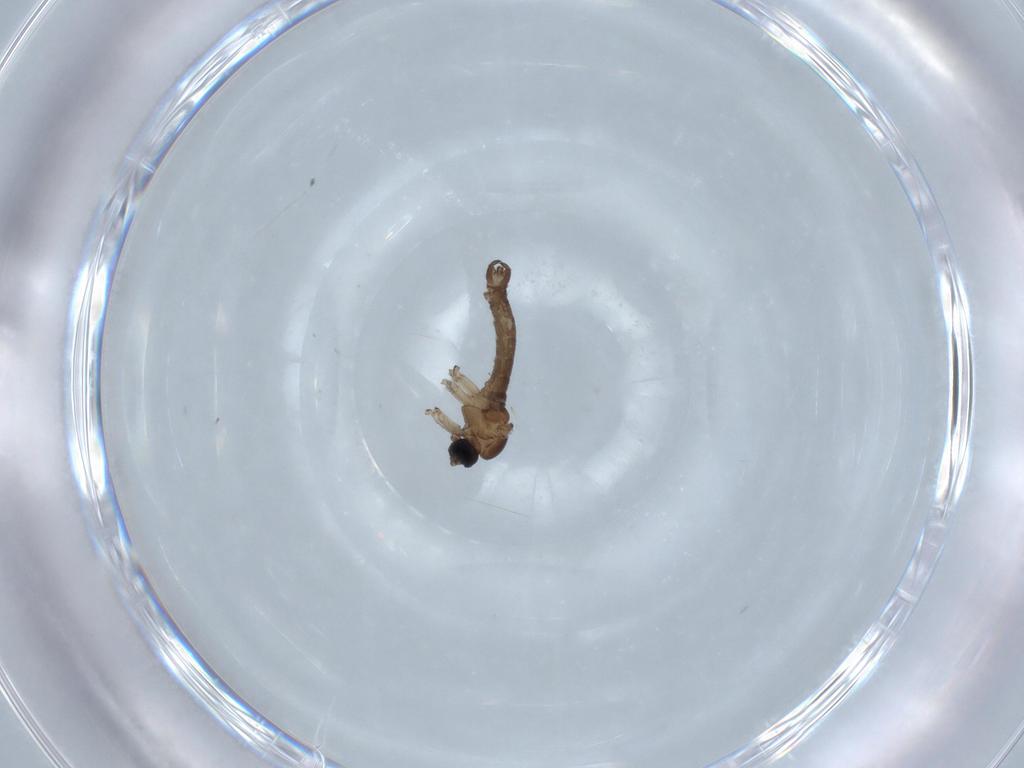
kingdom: Animalia
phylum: Arthropoda
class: Insecta
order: Diptera
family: Sciaridae
